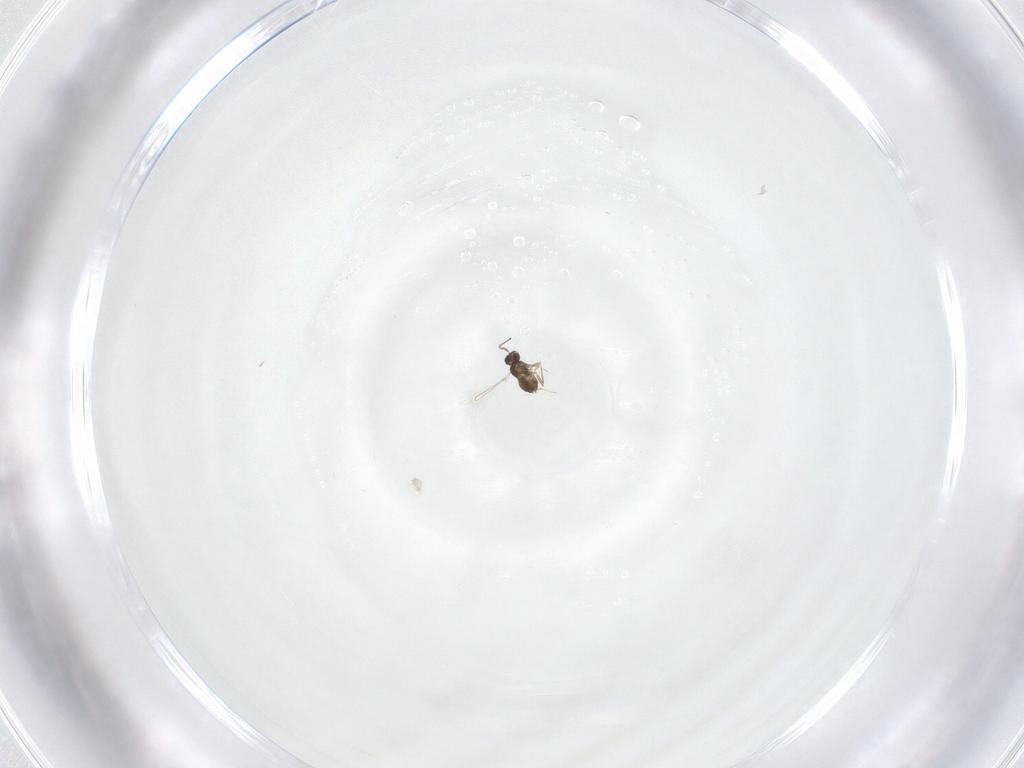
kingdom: Animalia
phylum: Arthropoda
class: Insecta
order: Hymenoptera
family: Mymaridae
